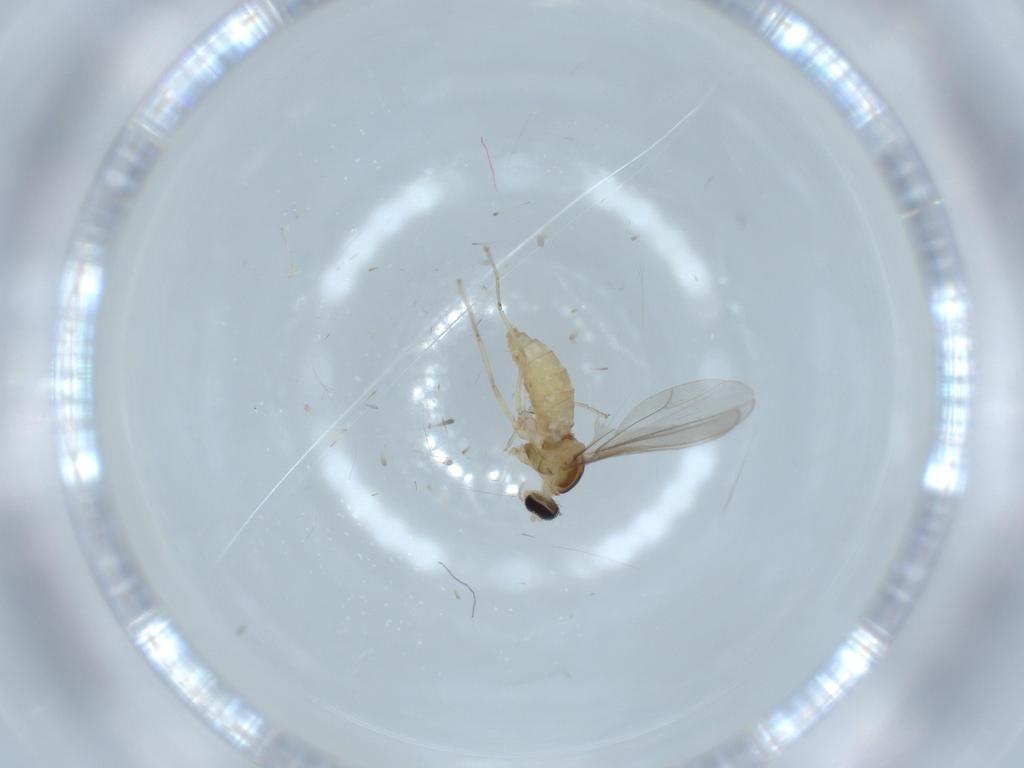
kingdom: Animalia
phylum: Arthropoda
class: Insecta
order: Diptera
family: Cecidomyiidae
